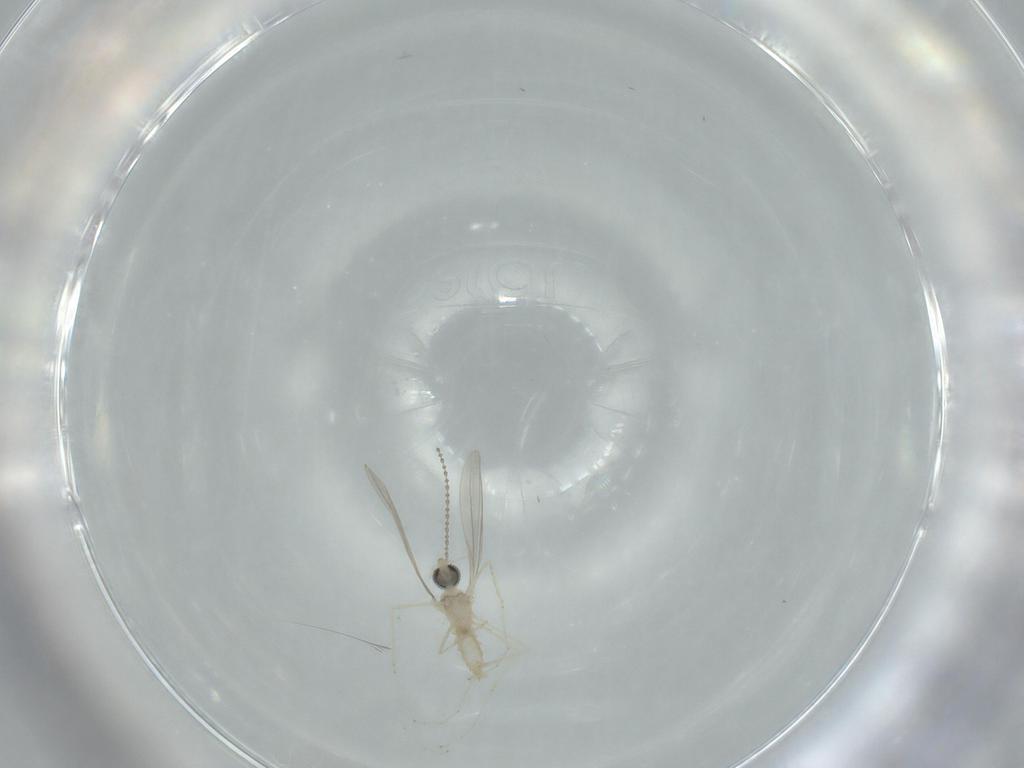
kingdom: Animalia
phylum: Arthropoda
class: Insecta
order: Diptera
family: Cecidomyiidae
